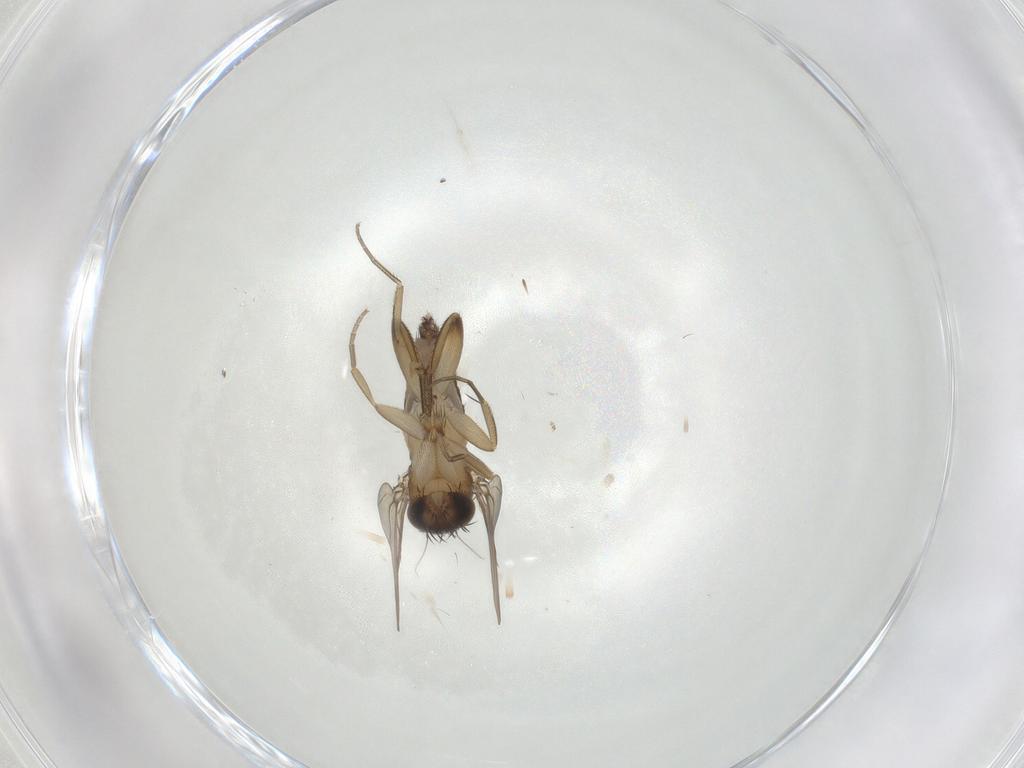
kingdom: Animalia
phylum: Arthropoda
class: Insecta
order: Diptera
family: Phoridae
